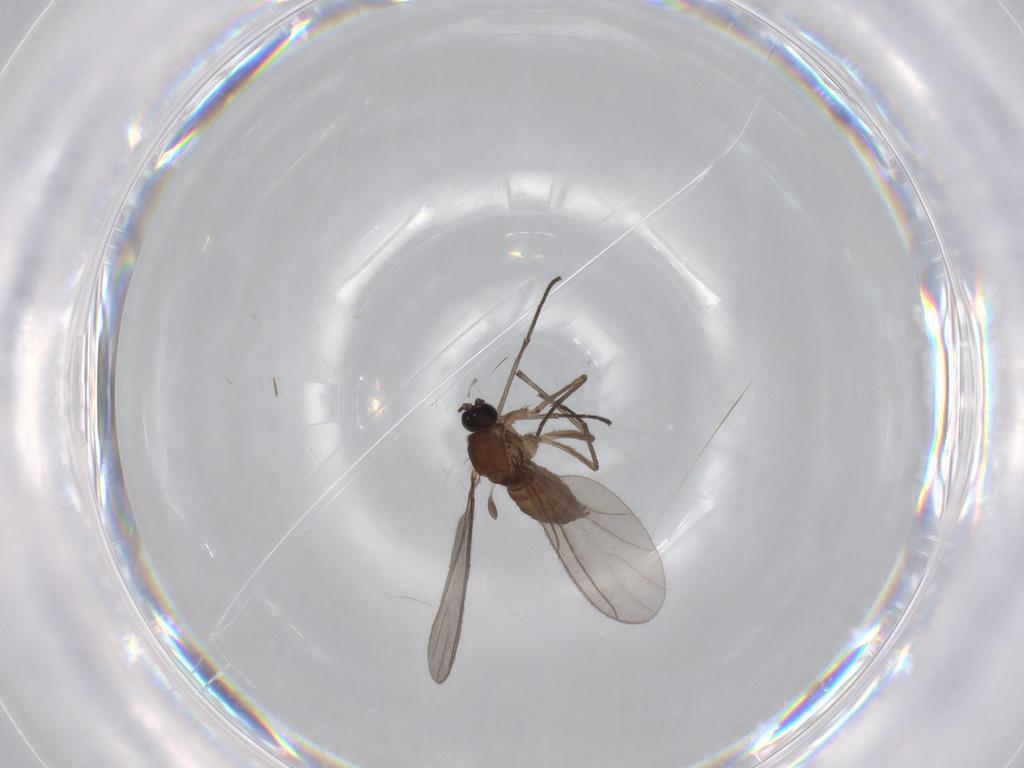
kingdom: Animalia
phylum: Arthropoda
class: Insecta
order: Diptera
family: Sciaridae
